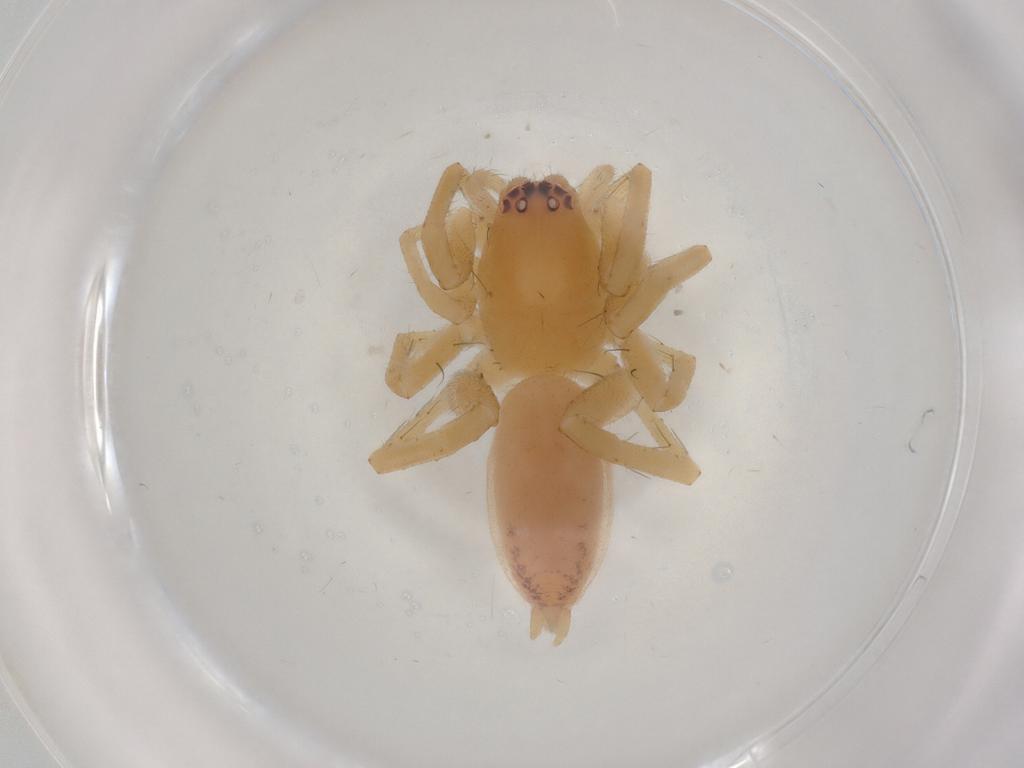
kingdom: Animalia
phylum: Arthropoda
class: Arachnida
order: Araneae
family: Clubionidae
